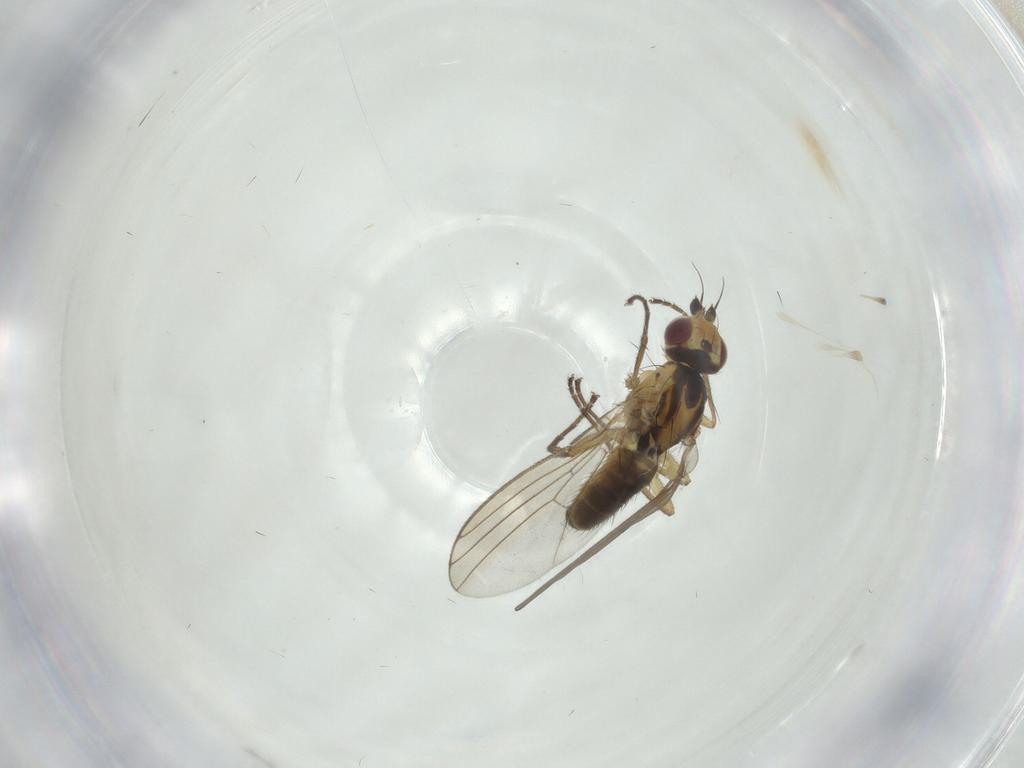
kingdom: Animalia
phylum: Arthropoda
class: Insecta
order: Diptera
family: Agromyzidae
